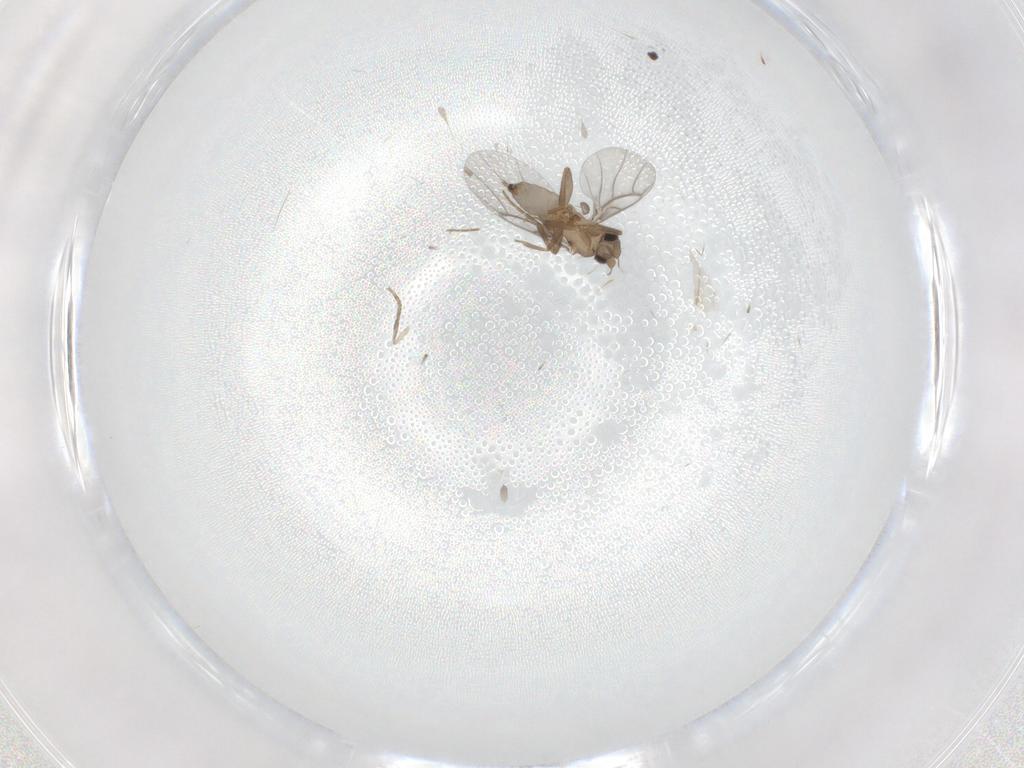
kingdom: Animalia
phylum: Arthropoda
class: Insecta
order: Diptera
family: Psychodidae
